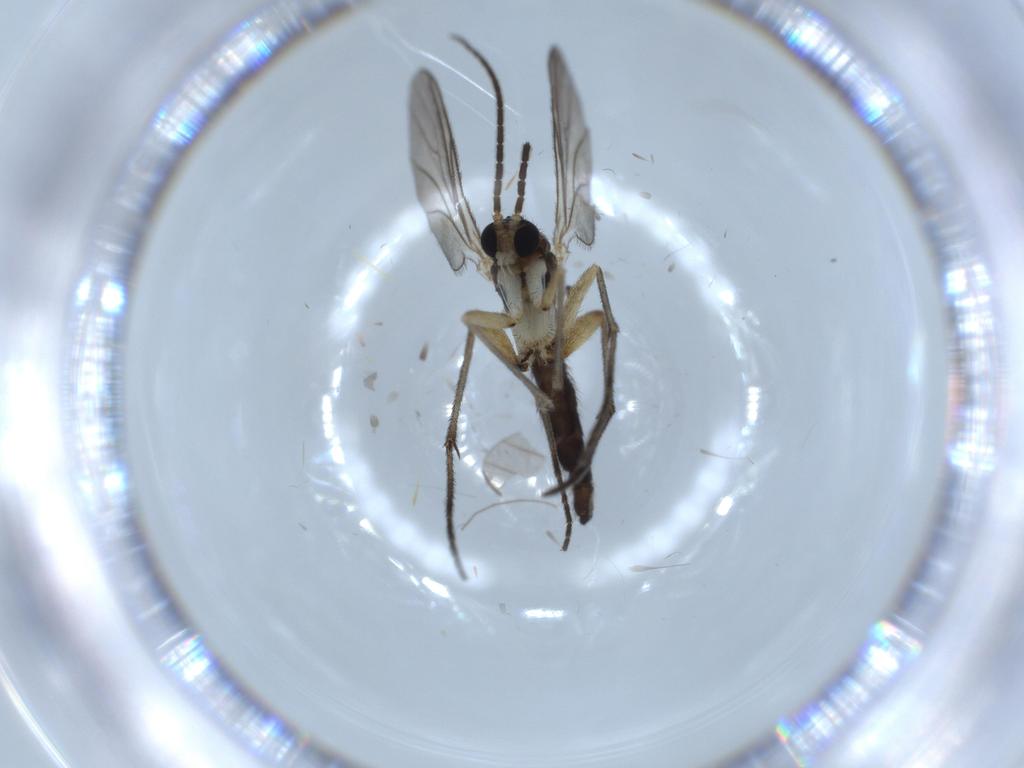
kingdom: Animalia
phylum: Arthropoda
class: Insecta
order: Diptera
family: Sciaridae
